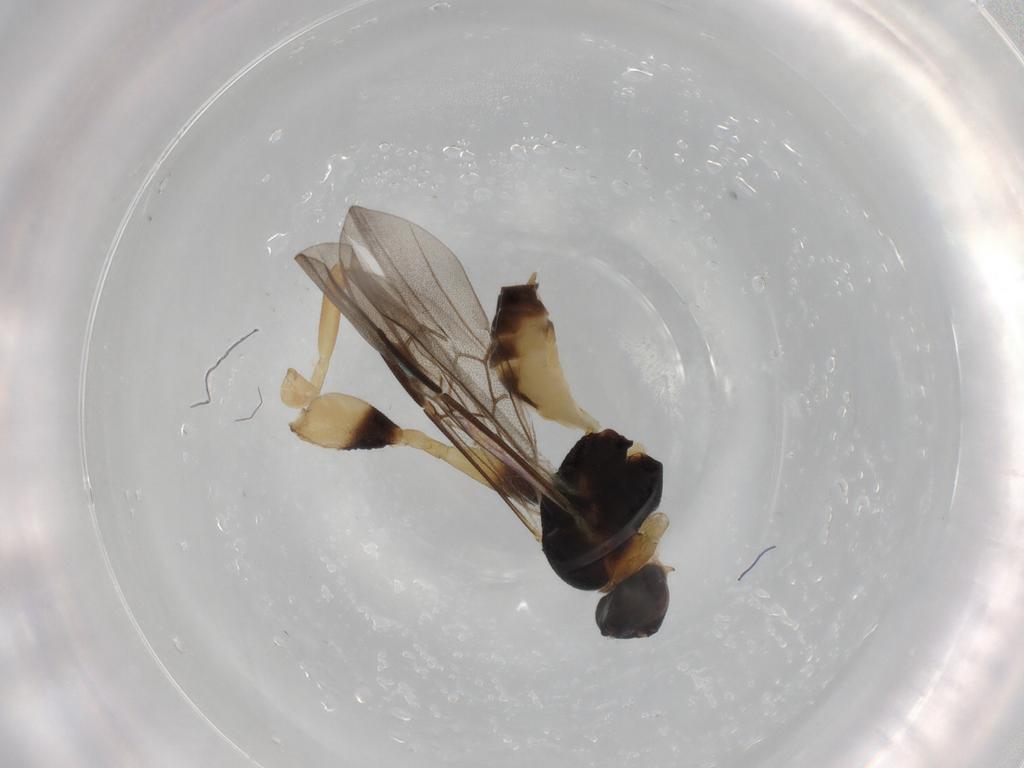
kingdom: Animalia
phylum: Arthropoda
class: Insecta
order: Hymenoptera
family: Braconidae
